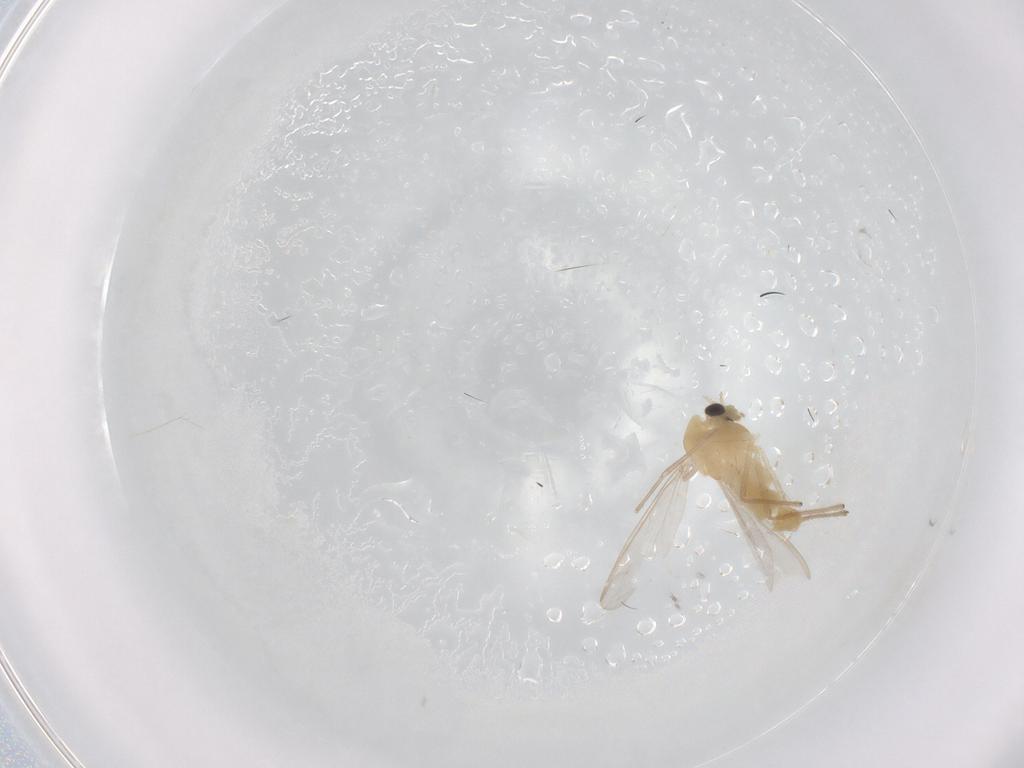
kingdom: Animalia
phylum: Arthropoda
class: Insecta
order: Diptera
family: Chironomidae
